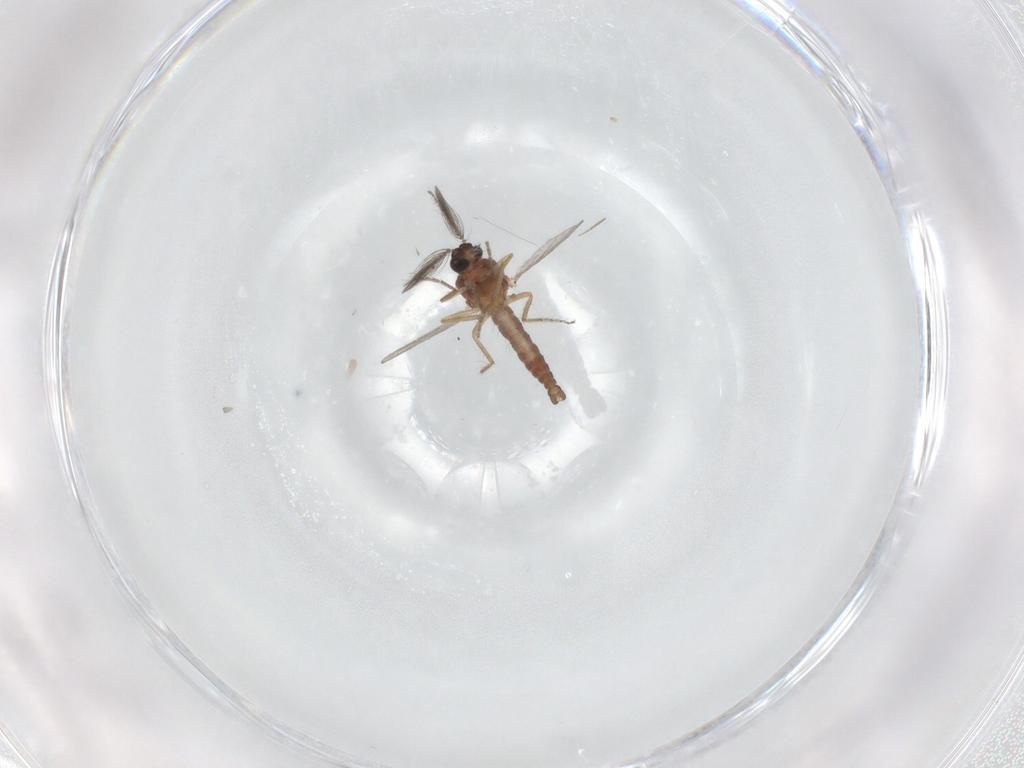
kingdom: Animalia
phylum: Arthropoda
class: Insecta
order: Diptera
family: Ceratopogonidae
